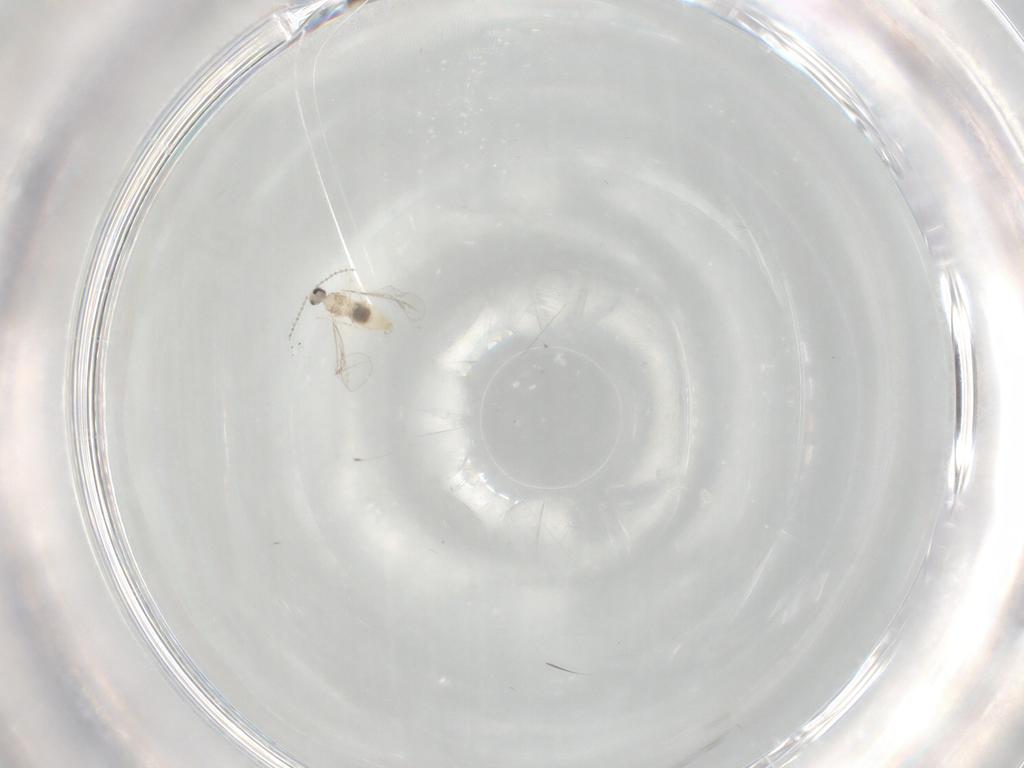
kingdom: Animalia
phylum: Arthropoda
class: Insecta
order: Diptera
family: Cecidomyiidae
